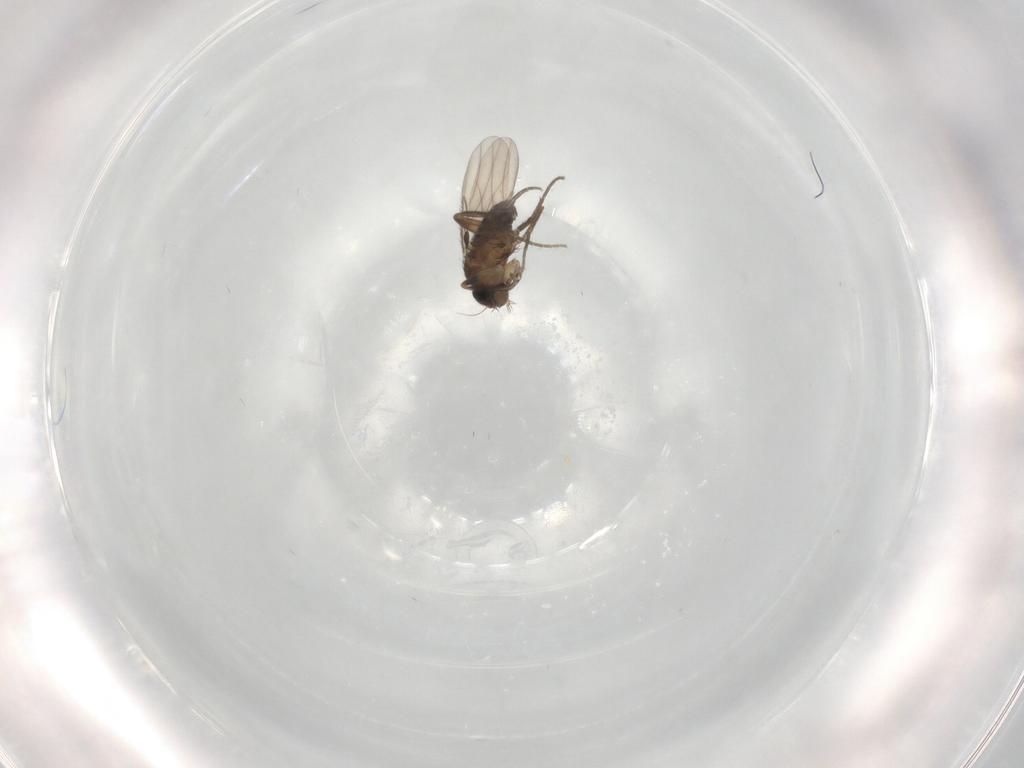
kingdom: Animalia
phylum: Arthropoda
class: Insecta
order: Diptera
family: Phoridae
